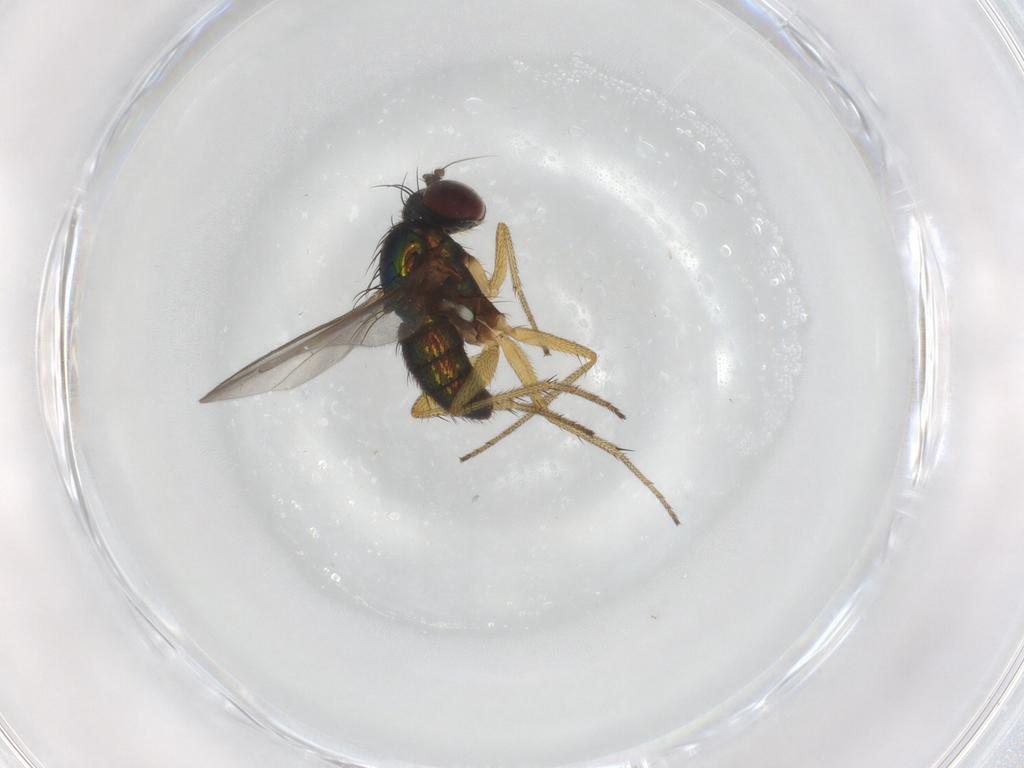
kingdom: Animalia
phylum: Arthropoda
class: Insecta
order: Diptera
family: Dolichopodidae
